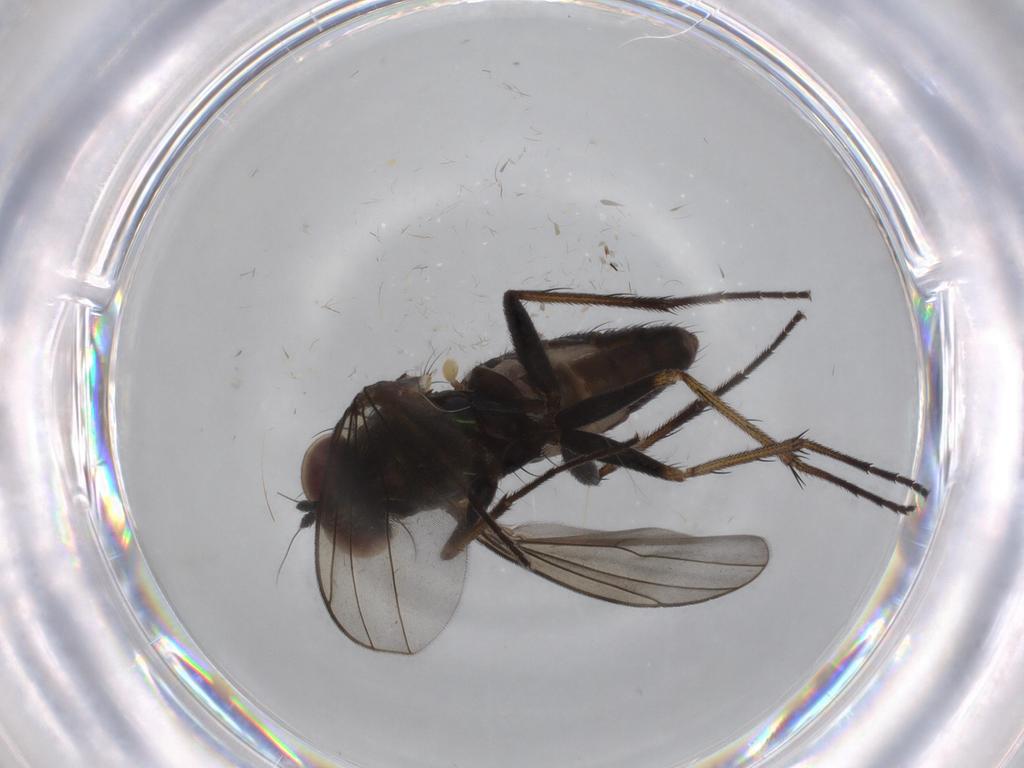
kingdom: Animalia
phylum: Arthropoda
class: Insecta
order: Diptera
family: Dolichopodidae
